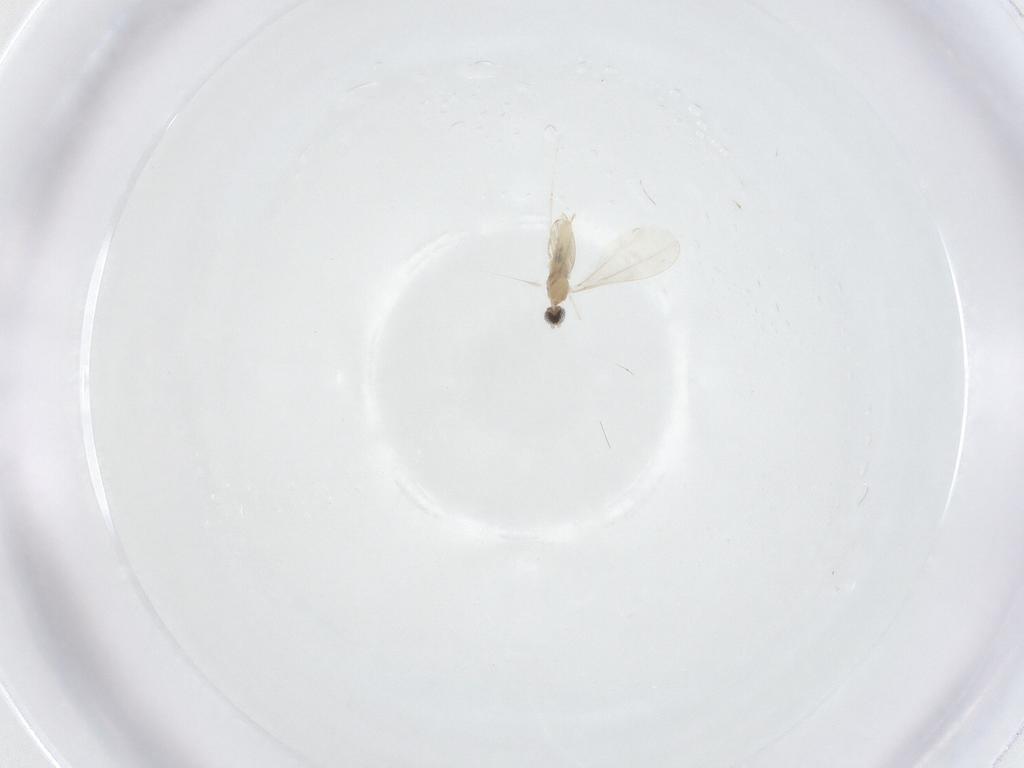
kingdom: Animalia
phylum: Arthropoda
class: Insecta
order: Diptera
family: Cecidomyiidae
